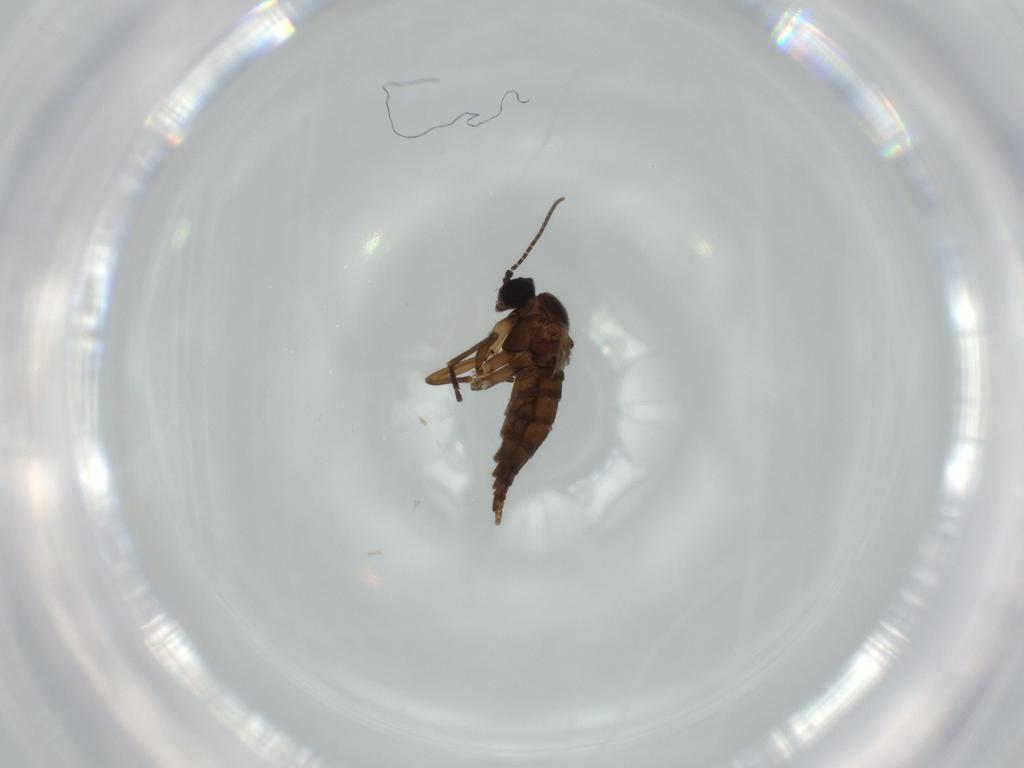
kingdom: Animalia
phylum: Arthropoda
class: Insecta
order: Diptera
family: Sciaridae
